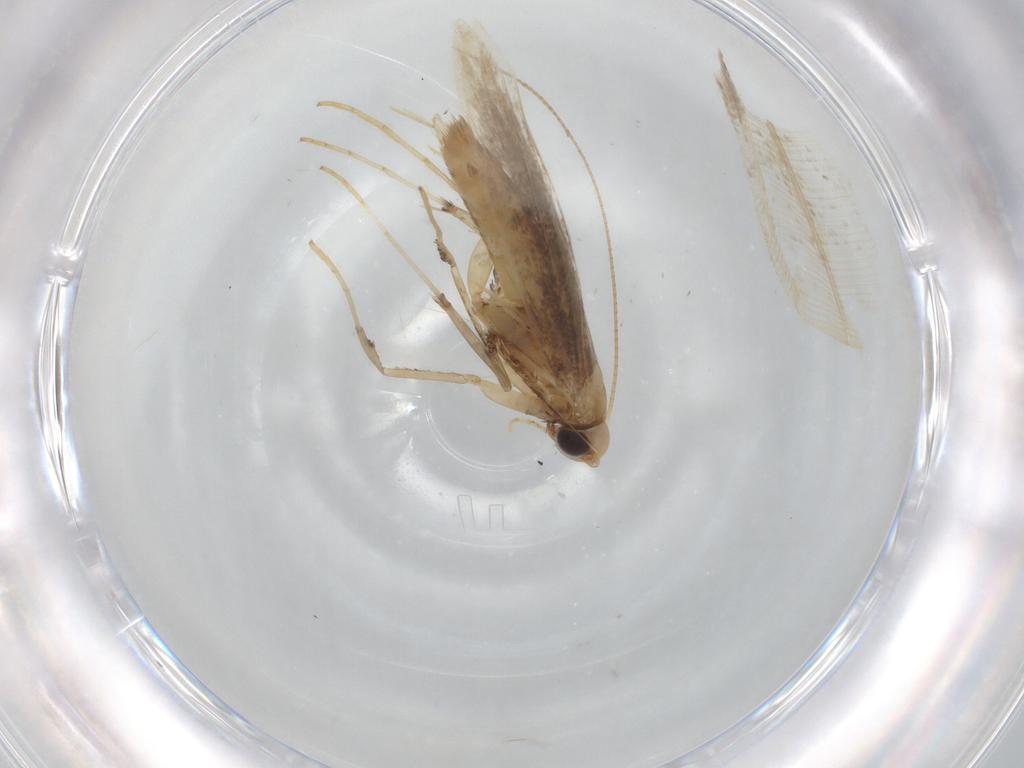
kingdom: Animalia
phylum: Arthropoda
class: Insecta
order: Lepidoptera
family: Gracillariidae
